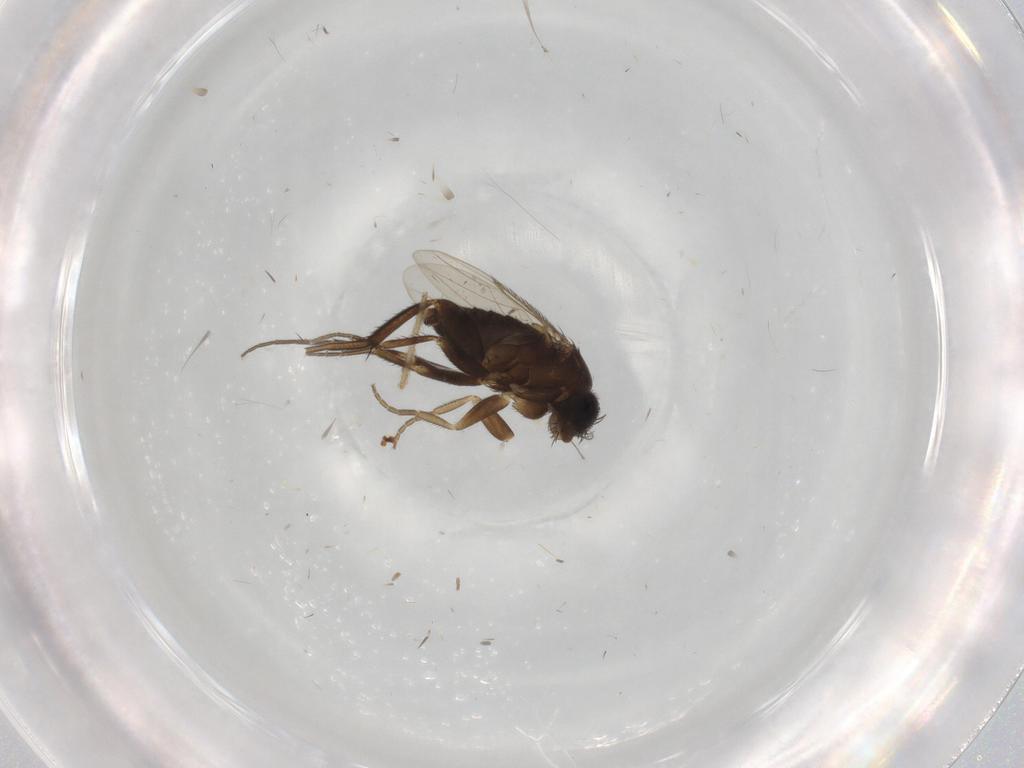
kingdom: Animalia
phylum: Arthropoda
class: Insecta
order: Diptera
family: Phoridae
